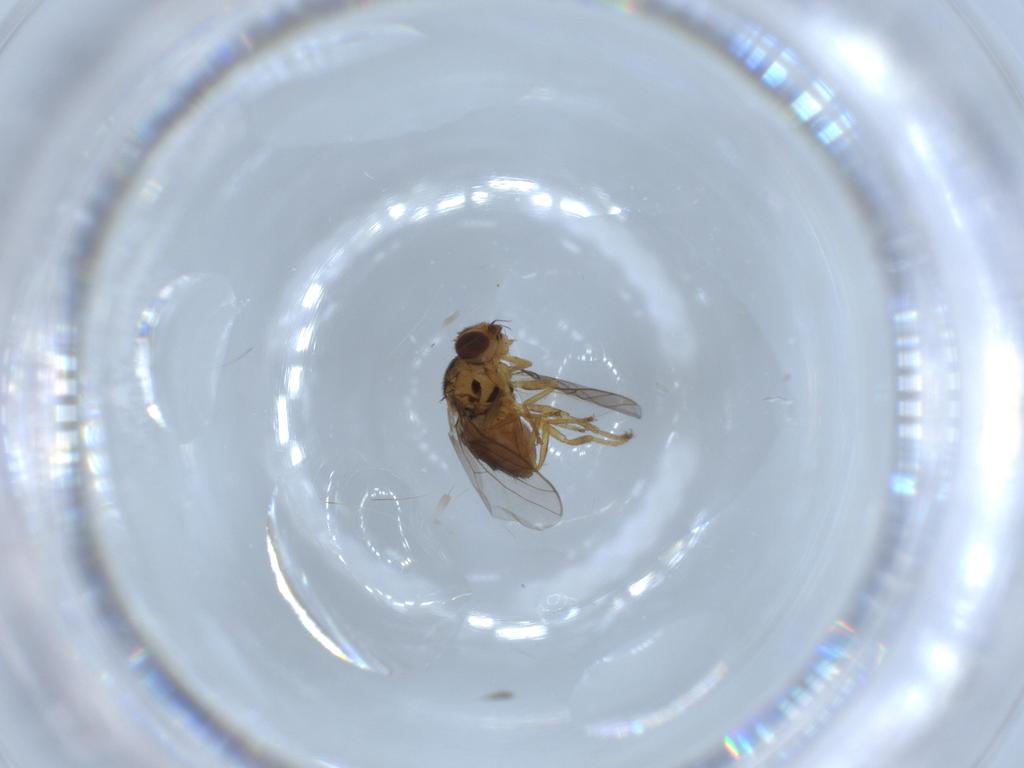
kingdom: Animalia
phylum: Arthropoda
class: Insecta
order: Diptera
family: Chloropidae
